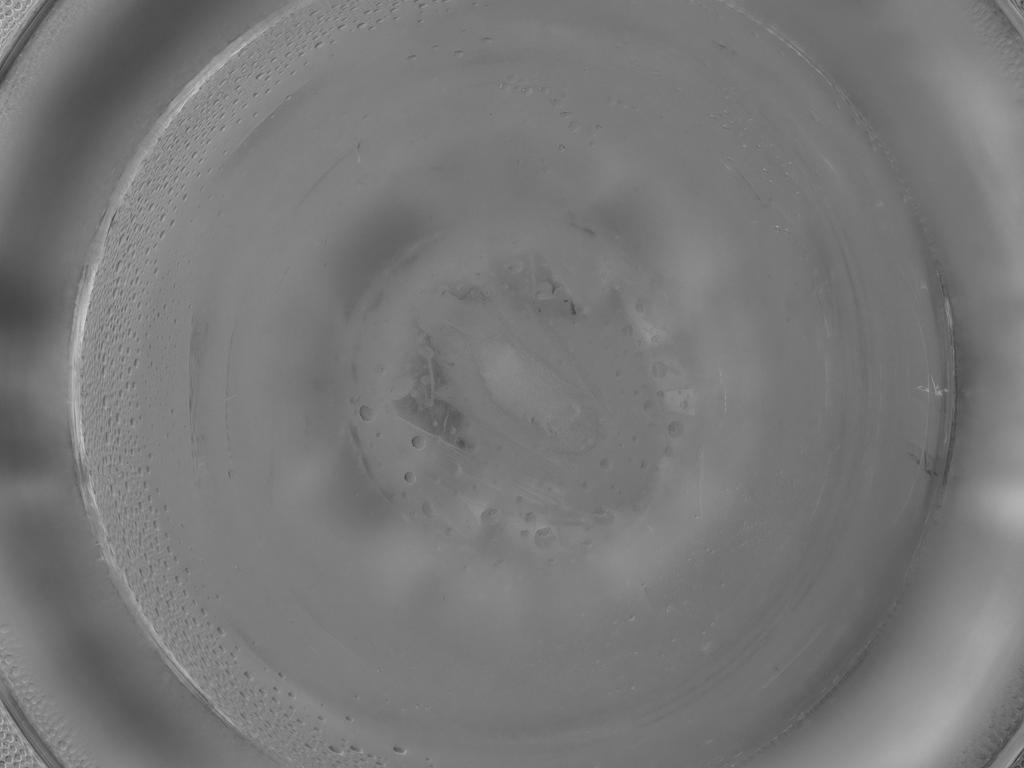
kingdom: Animalia
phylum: Arthropoda
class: Insecta
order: Diptera
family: Psychodidae
